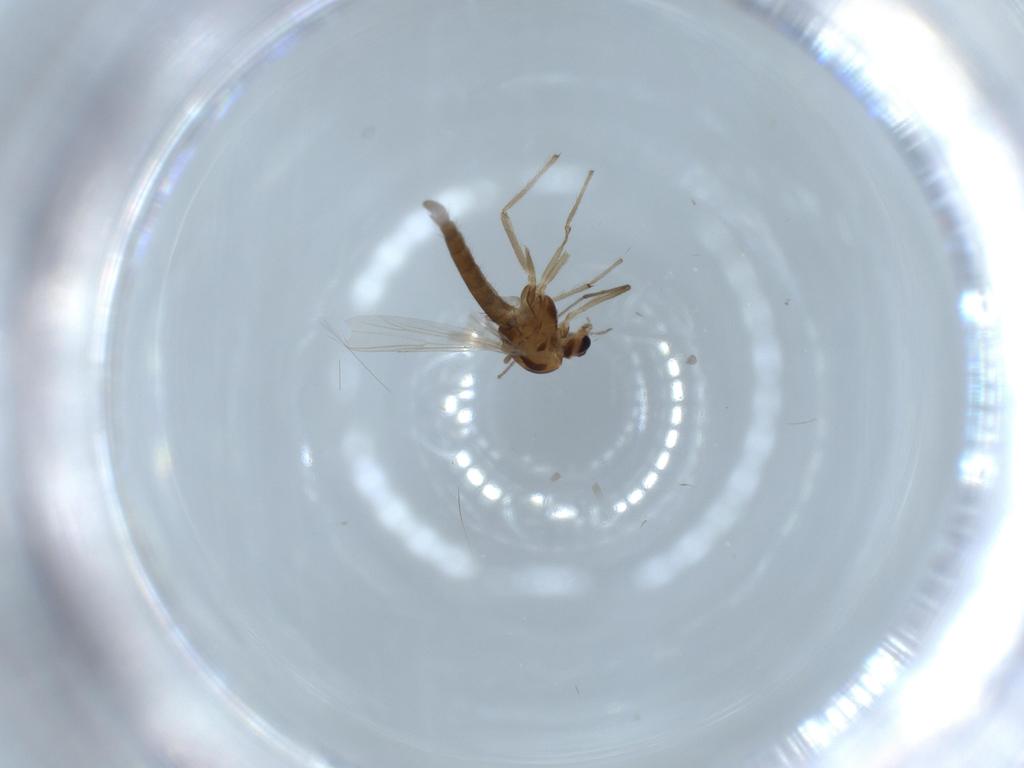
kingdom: Animalia
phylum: Arthropoda
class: Insecta
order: Diptera
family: Chironomidae
